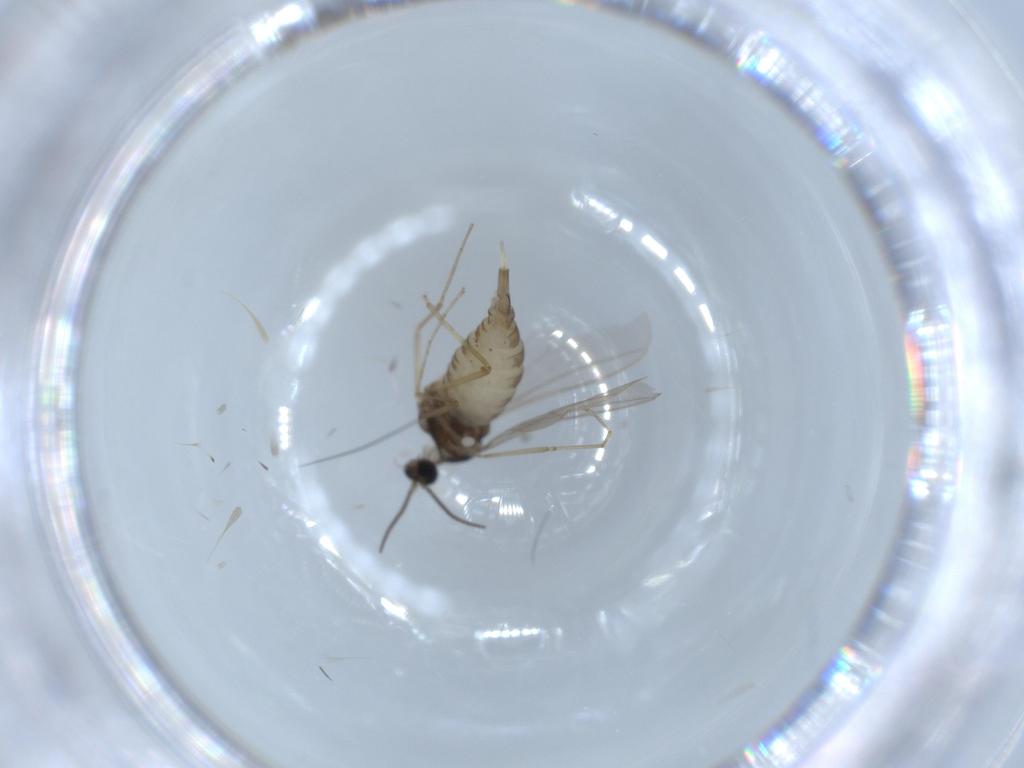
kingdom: Animalia
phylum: Arthropoda
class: Insecta
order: Diptera
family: Cecidomyiidae
